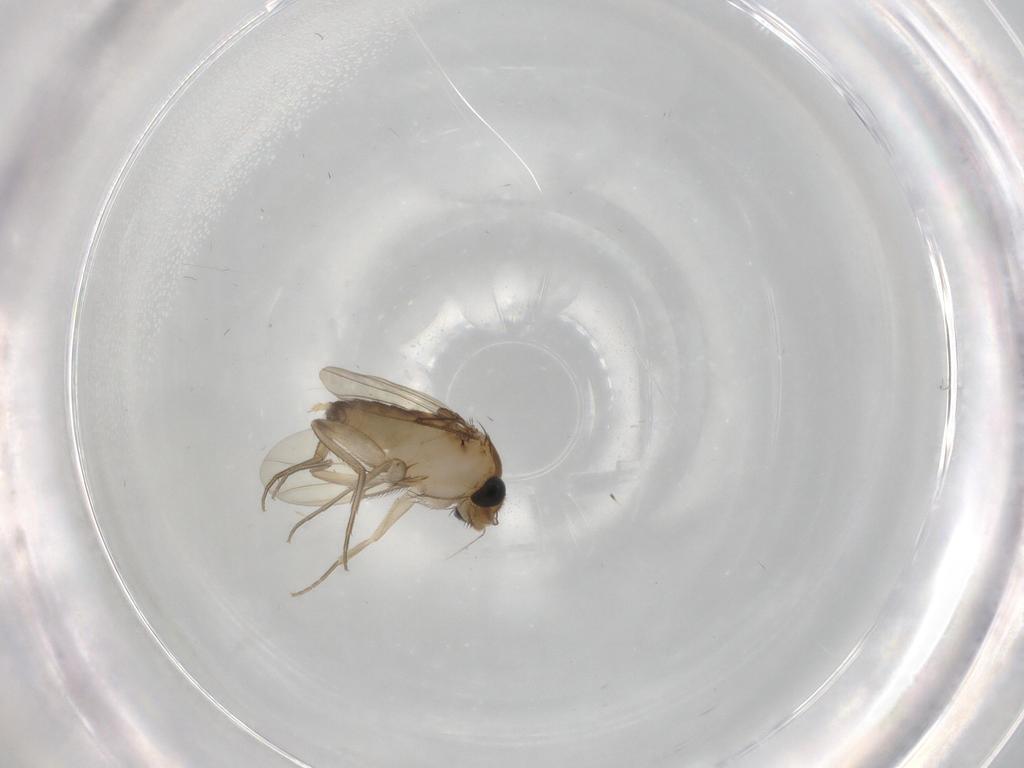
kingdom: Animalia
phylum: Arthropoda
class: Insecta
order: Diptera
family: Phoridae
